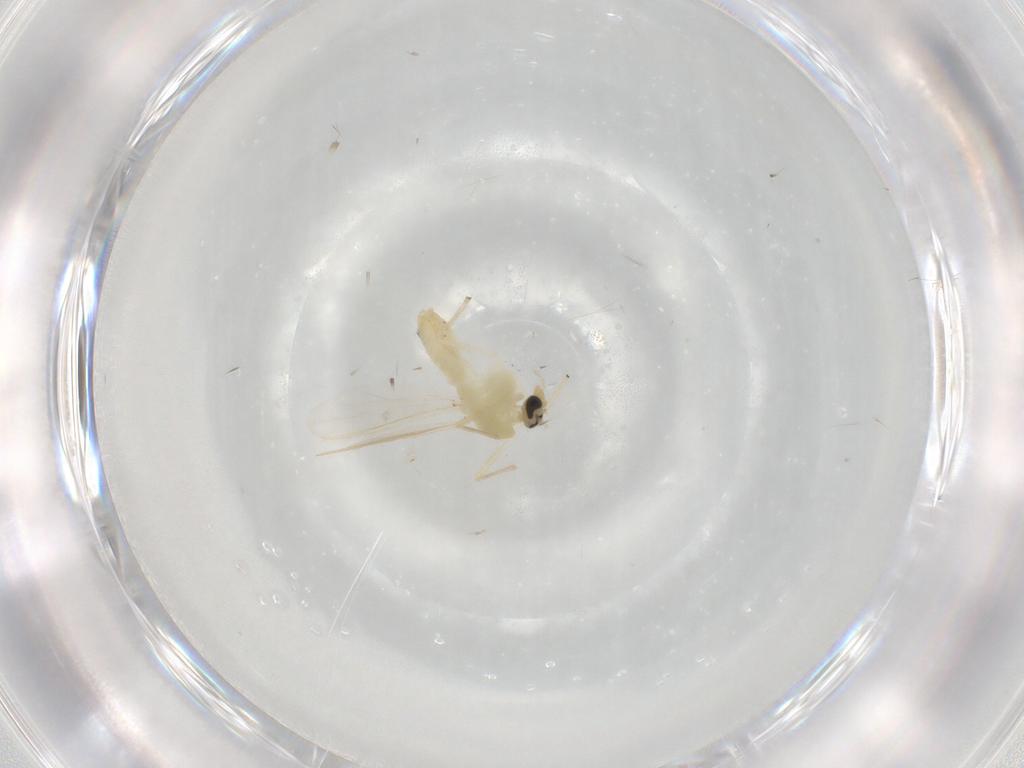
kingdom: Animalia
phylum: Arthropoda
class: Insecta
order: Diptera
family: Chironomidae
